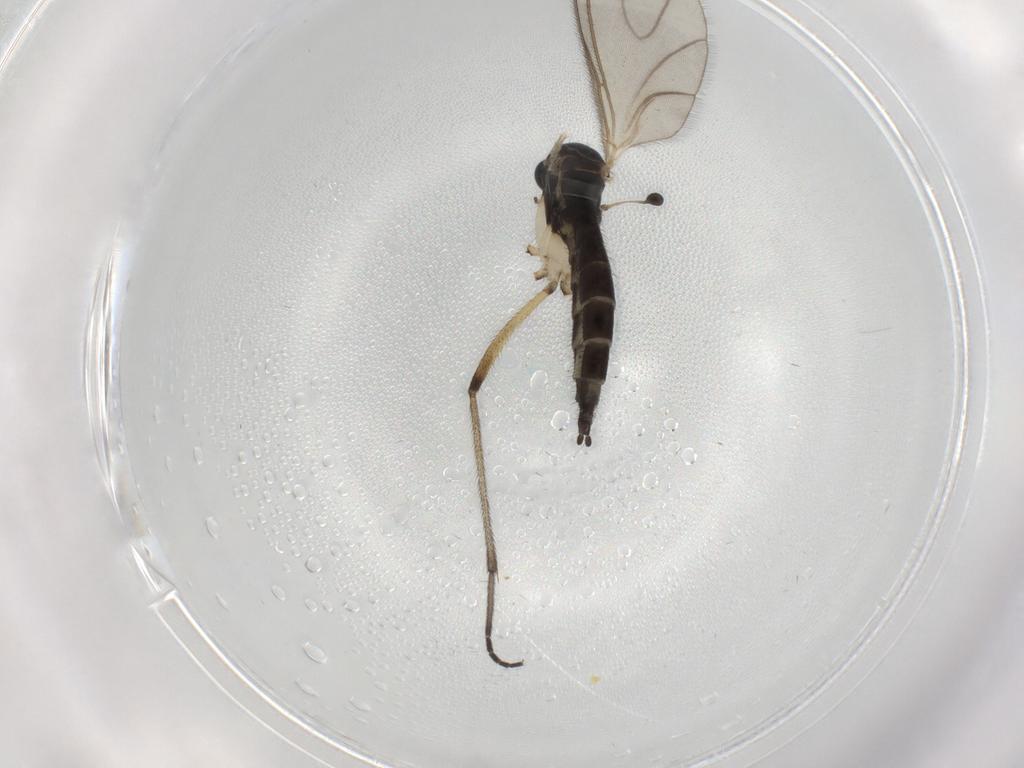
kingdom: Animalia
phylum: Arthropoda
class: Insecta
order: Diptera
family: Sciaridae
